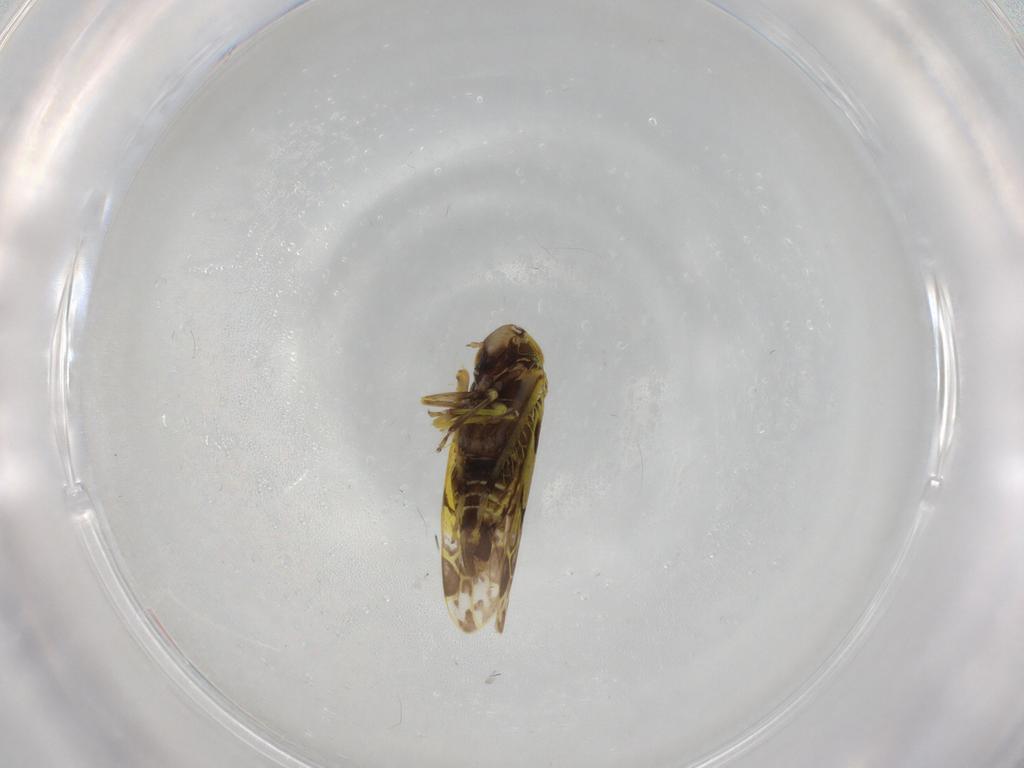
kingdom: Animalia
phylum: Arthropoda
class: Insecta
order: Hemiptera
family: Cicadellidae
